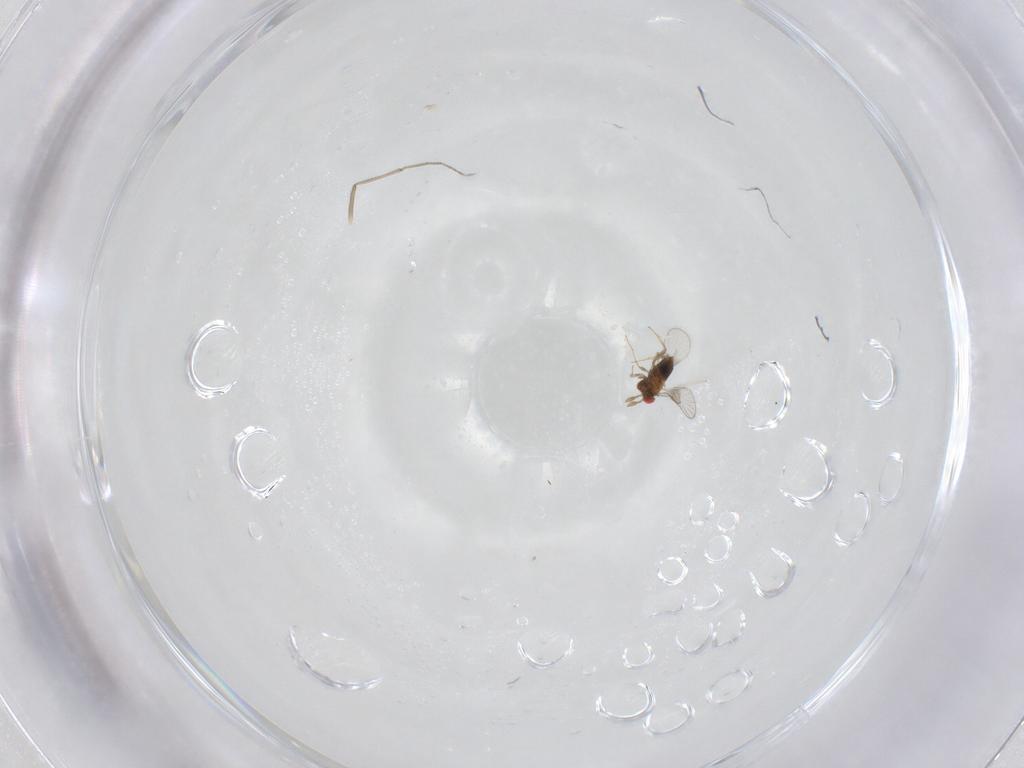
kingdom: Animalia
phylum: Arthropoda
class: Insecta
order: Hymenoptera
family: Trichogrammatidae
